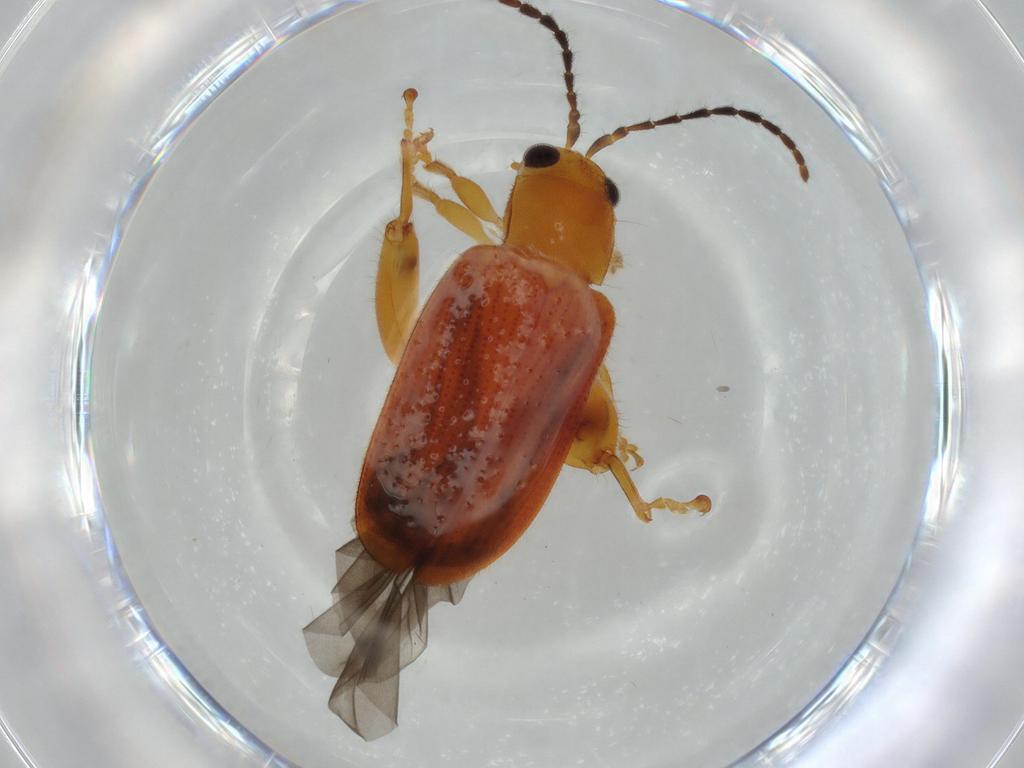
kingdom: Animalia
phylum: Arthropoda
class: Insecta
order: Coleoptera
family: Chrysomelidae
